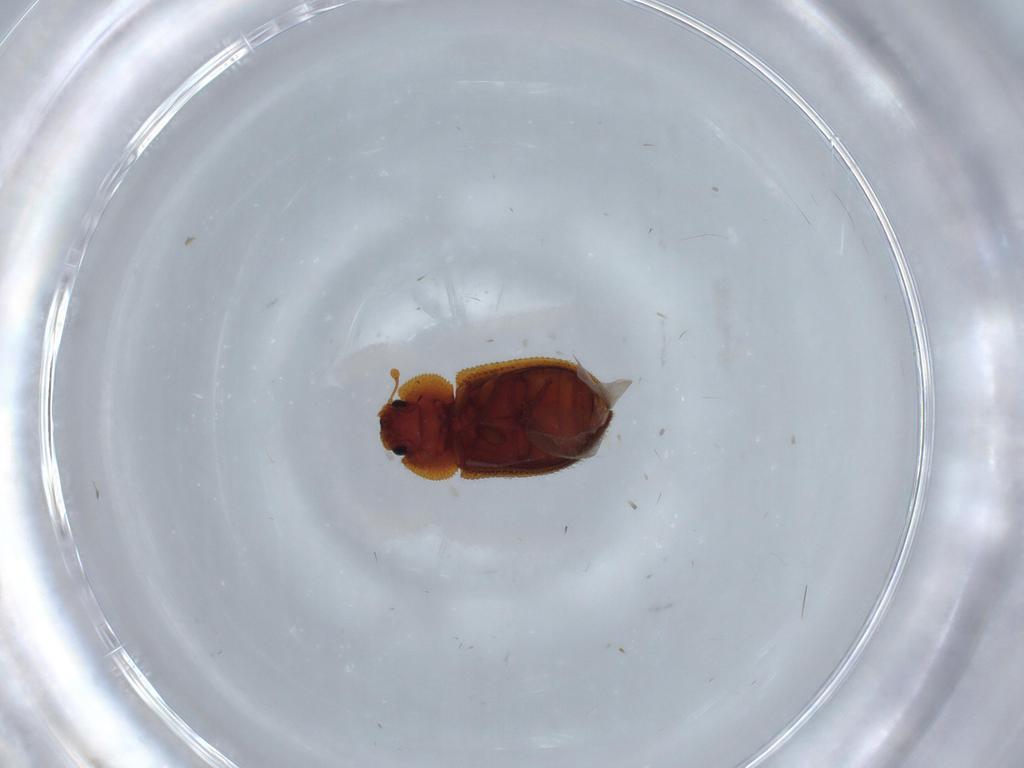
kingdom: Animalia
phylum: Arthropoda
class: Insecta
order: Coleoptera
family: Zopheridae
